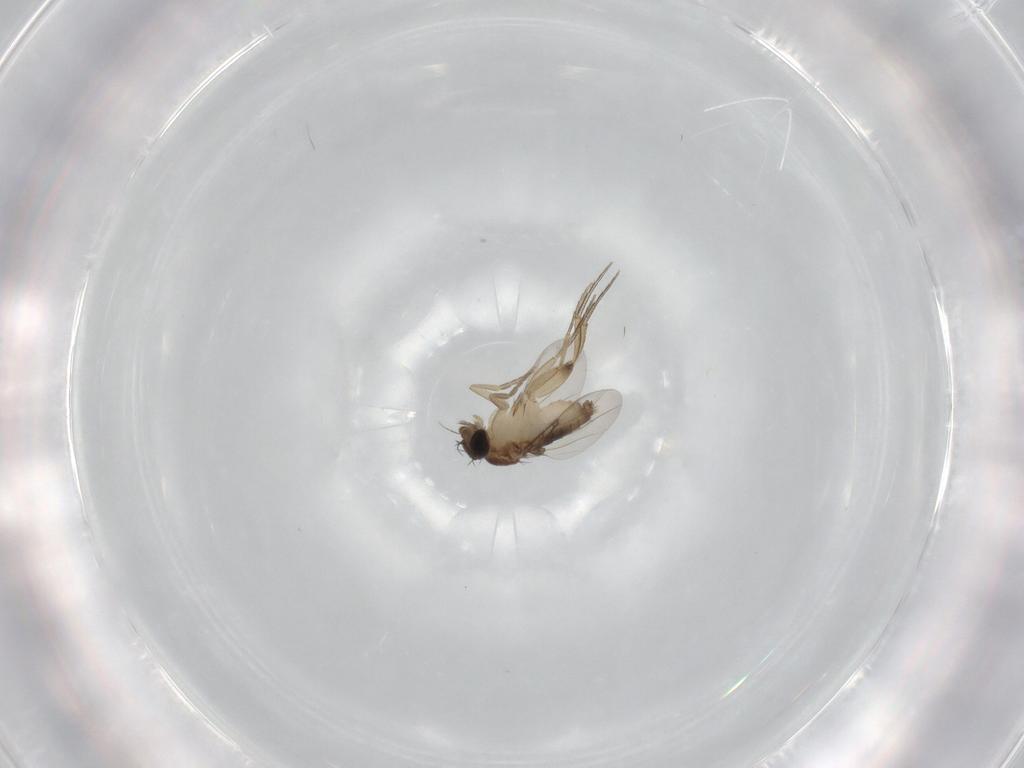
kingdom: Animalia
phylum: Arthropoda
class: Insecta
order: Diptera
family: Phoridae
